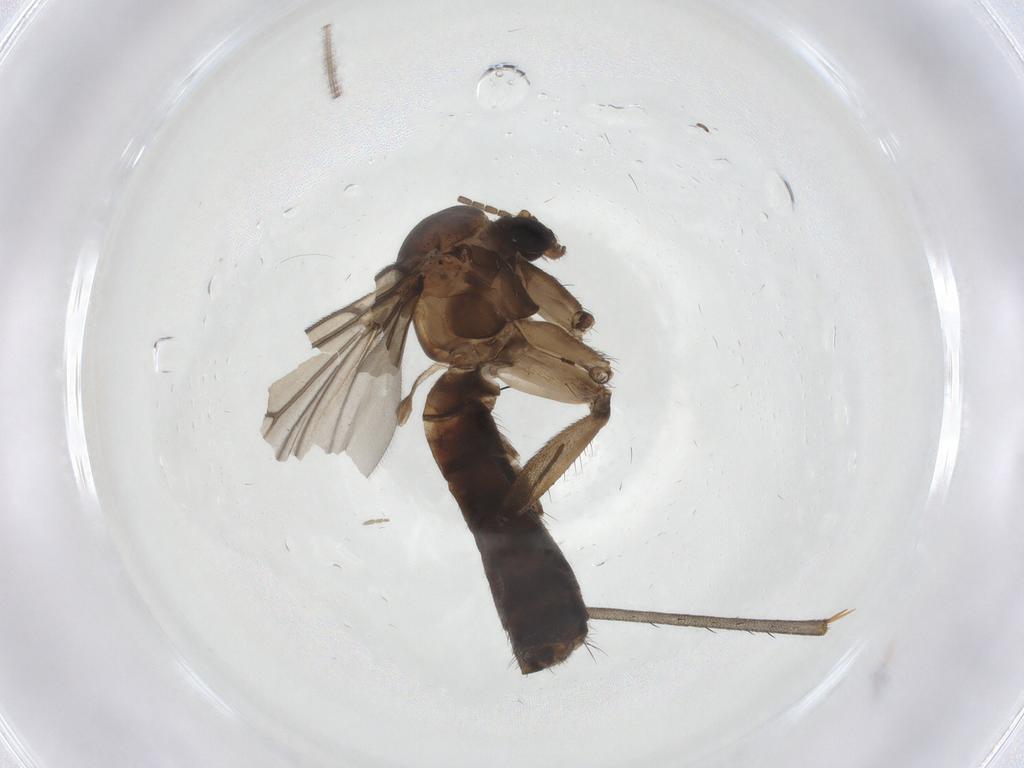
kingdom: Animalia
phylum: Arthropoda
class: Insecta
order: Diptera
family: Mycetophilidae
